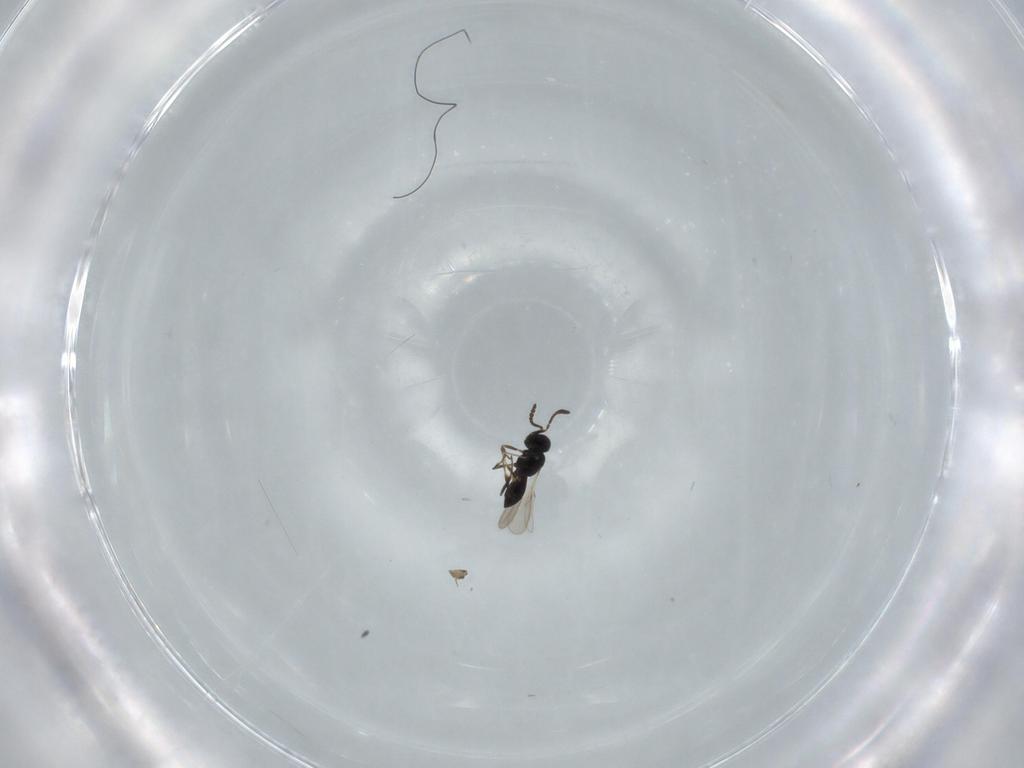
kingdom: Animalia
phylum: Arthropoda
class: Insecta
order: Hymenoptera
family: Scelionidae
